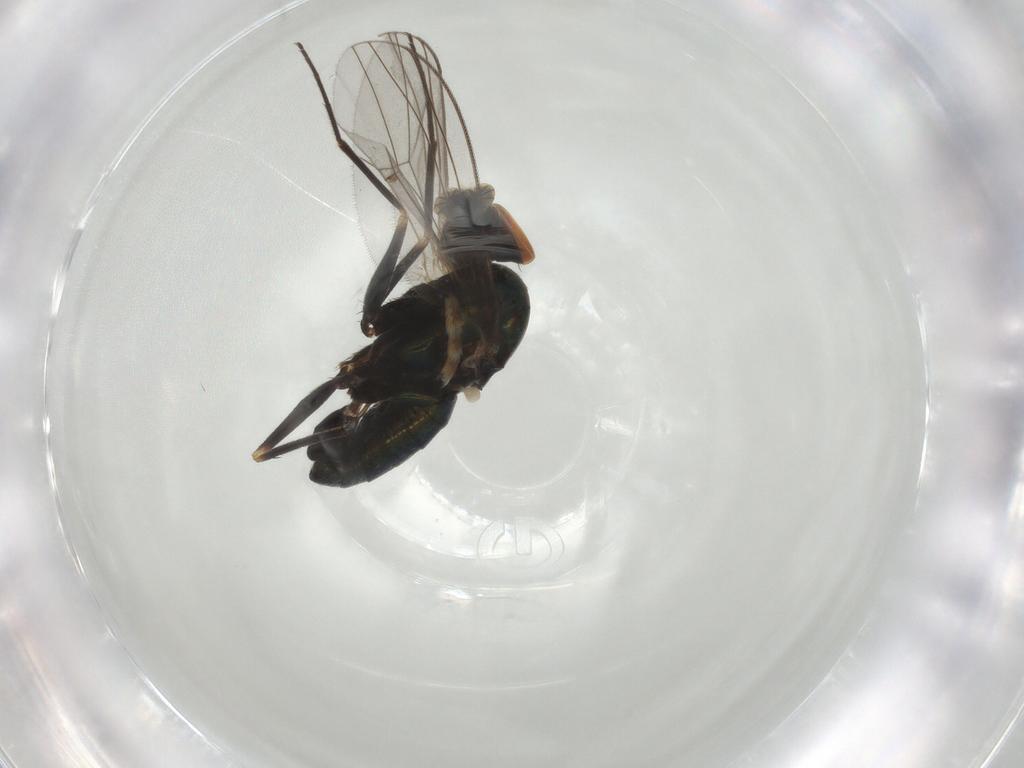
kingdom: Animalia
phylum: Arthropoda
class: Insecta
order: Diptera
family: Dolichopodidae
